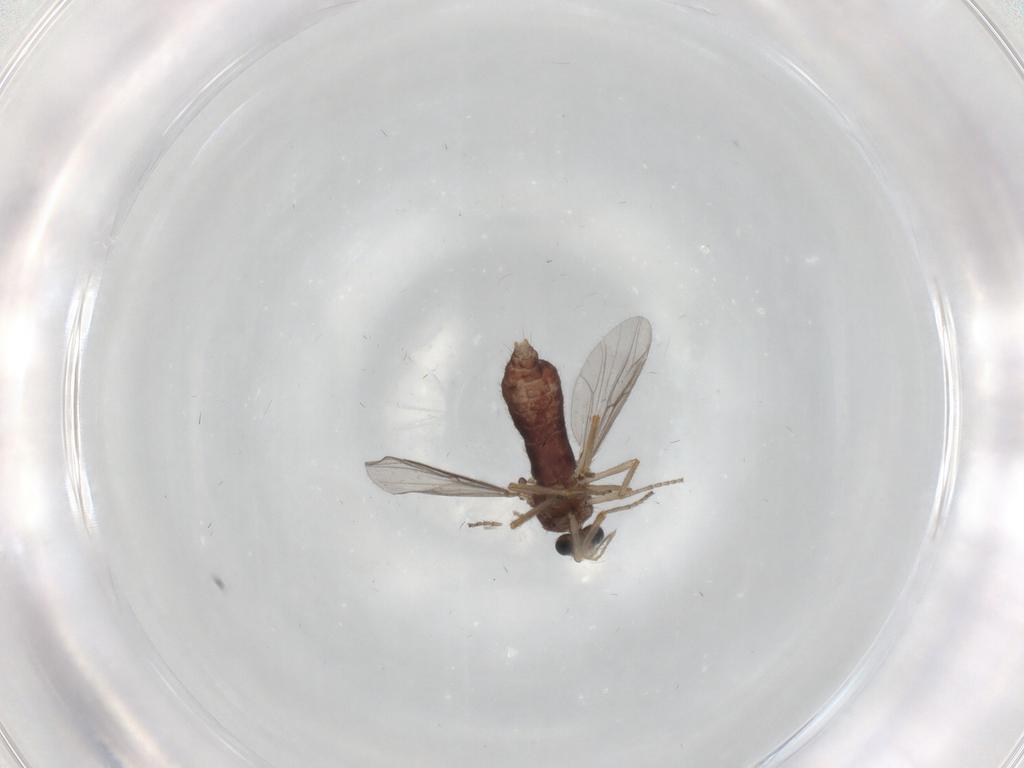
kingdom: Animalia
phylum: Arthropoda
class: Insecta
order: Diptera
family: Ceratopogonidae
